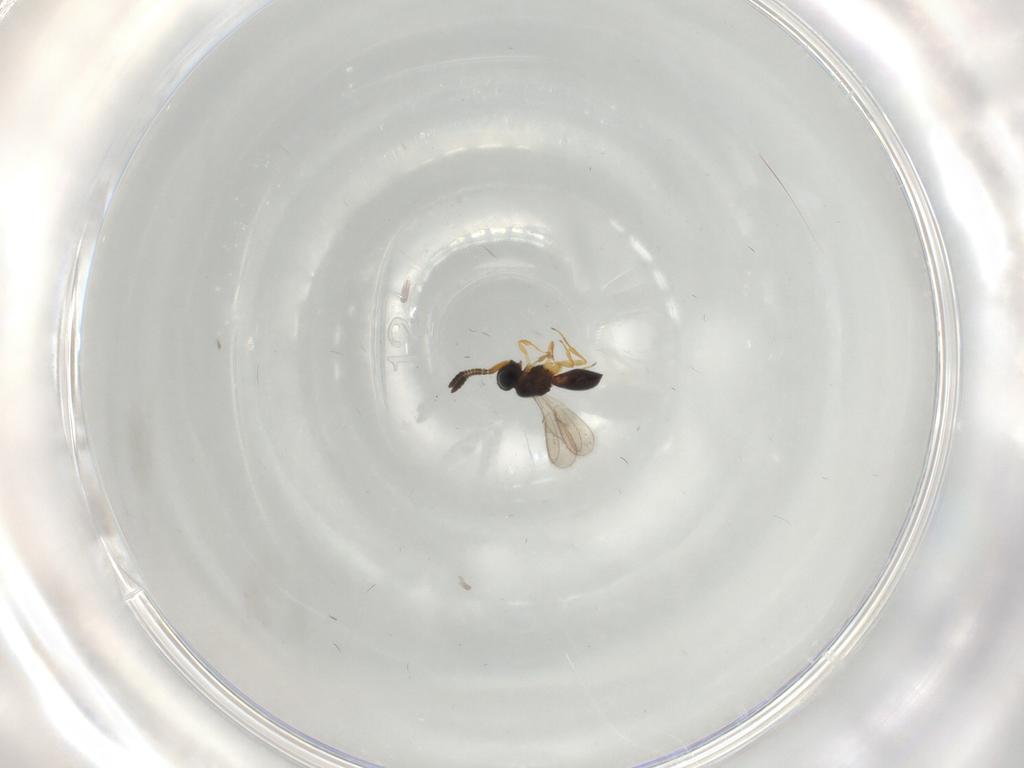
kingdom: Animalia
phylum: Arthropoda
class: Insecta
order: Hymenoptera
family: Scelionidae
